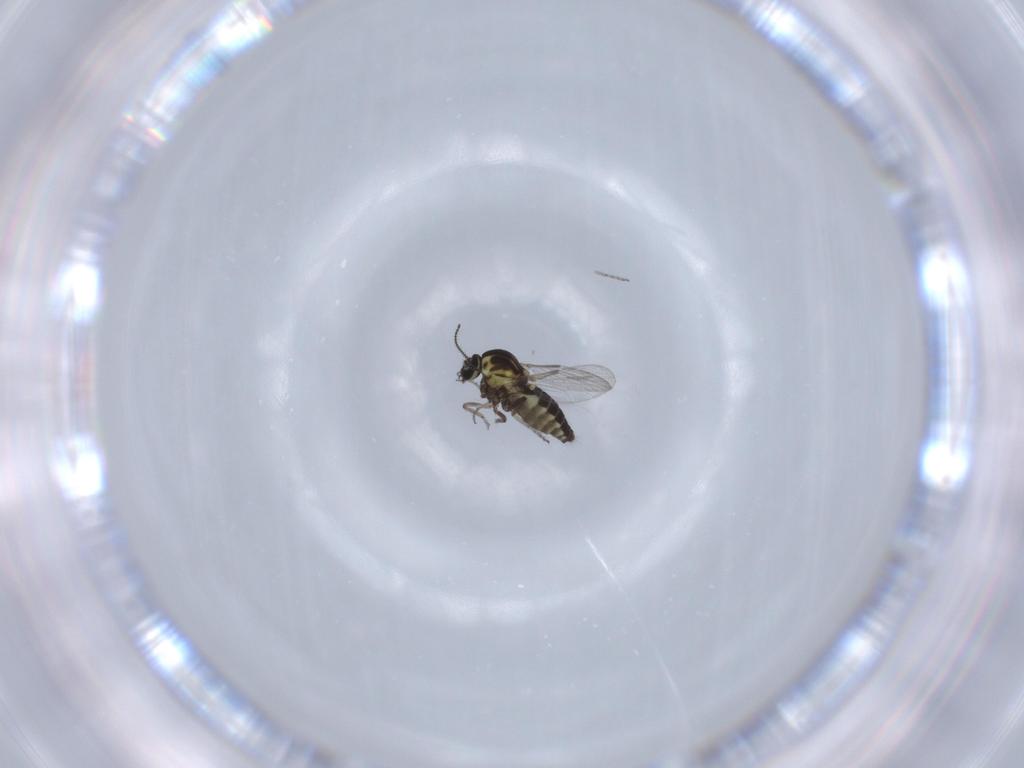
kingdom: Animalia
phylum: Arthropoda
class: Insecta
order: Diptera
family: Ceratopogonidae
